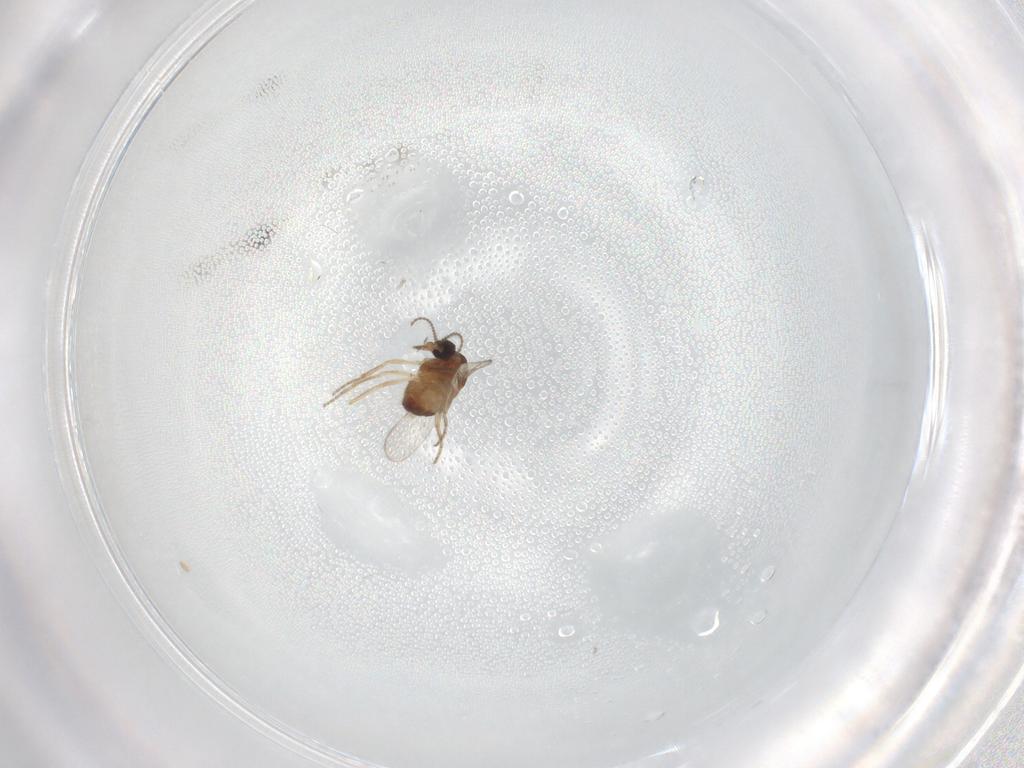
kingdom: Animalia
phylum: Arthropoda
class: Insecta
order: Diptera
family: Ceratopogonidae
